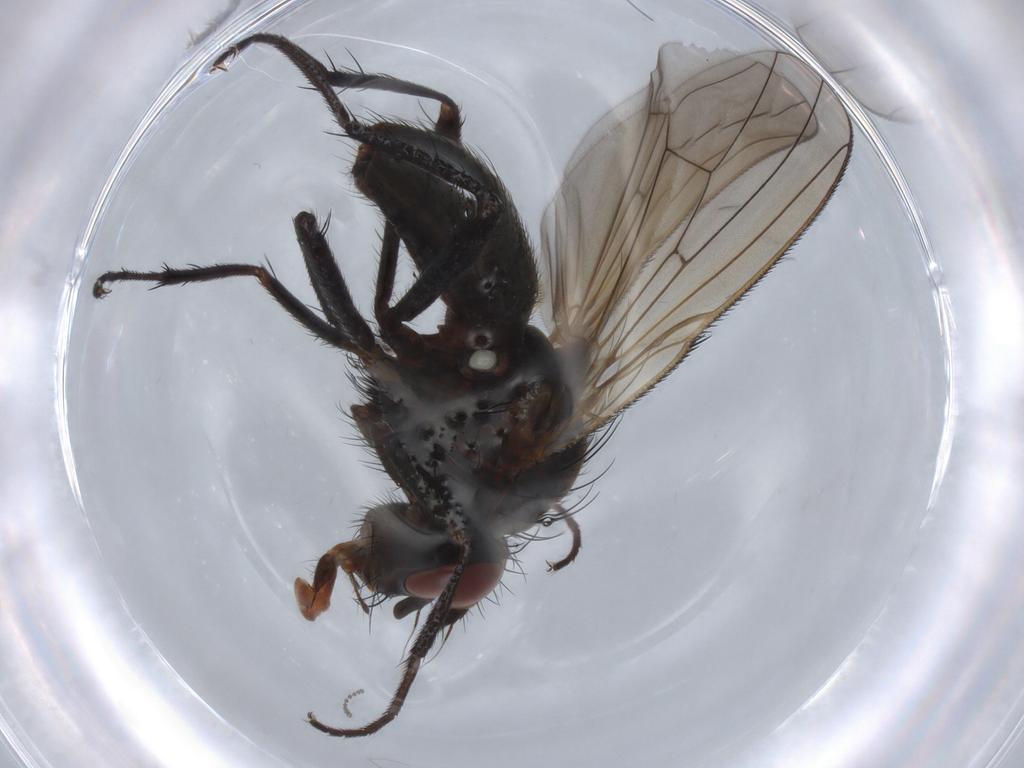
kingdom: Animalia
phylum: Arthropoda
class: Insecta
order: Diptera
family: Anthomyiidae
